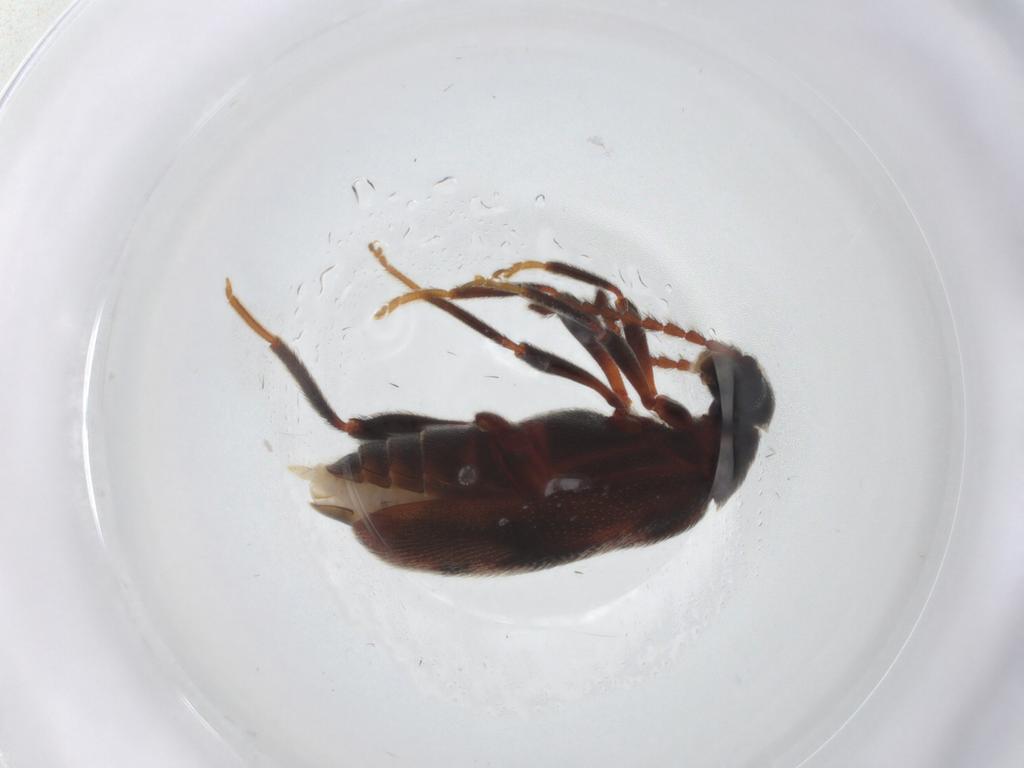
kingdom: Animalia
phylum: Arthropoda
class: Insecta
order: Coleoptera
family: Aderidae
